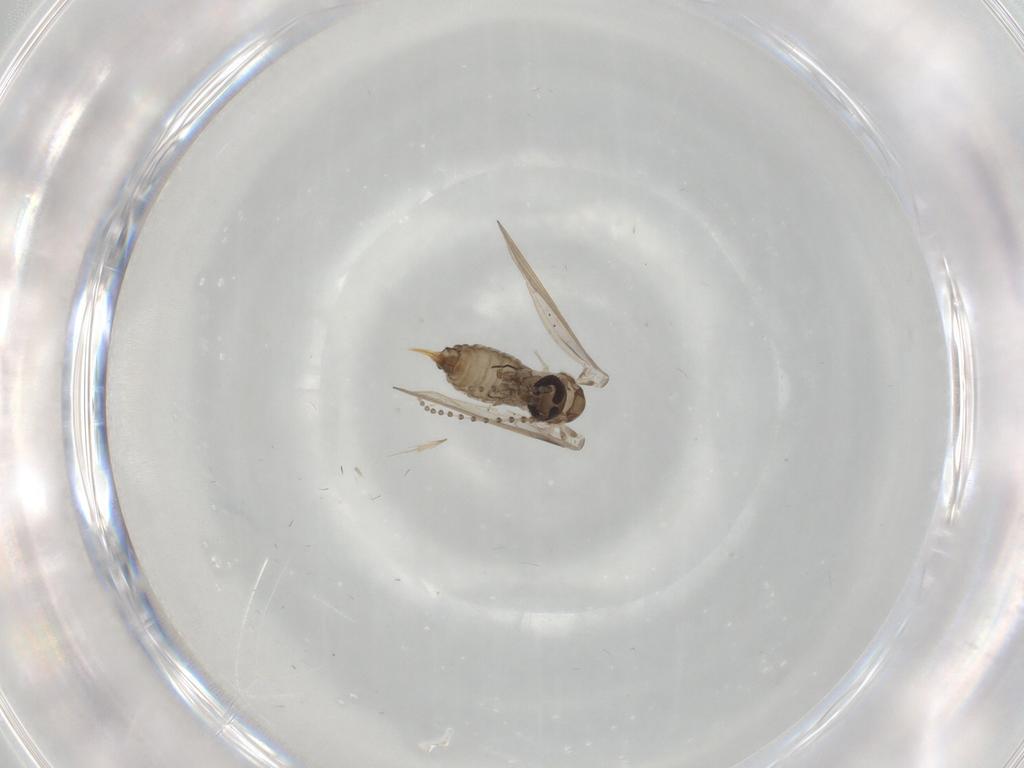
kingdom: Animalia
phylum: Arthropoda
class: Insecta
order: Diptera
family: Psychodidae
